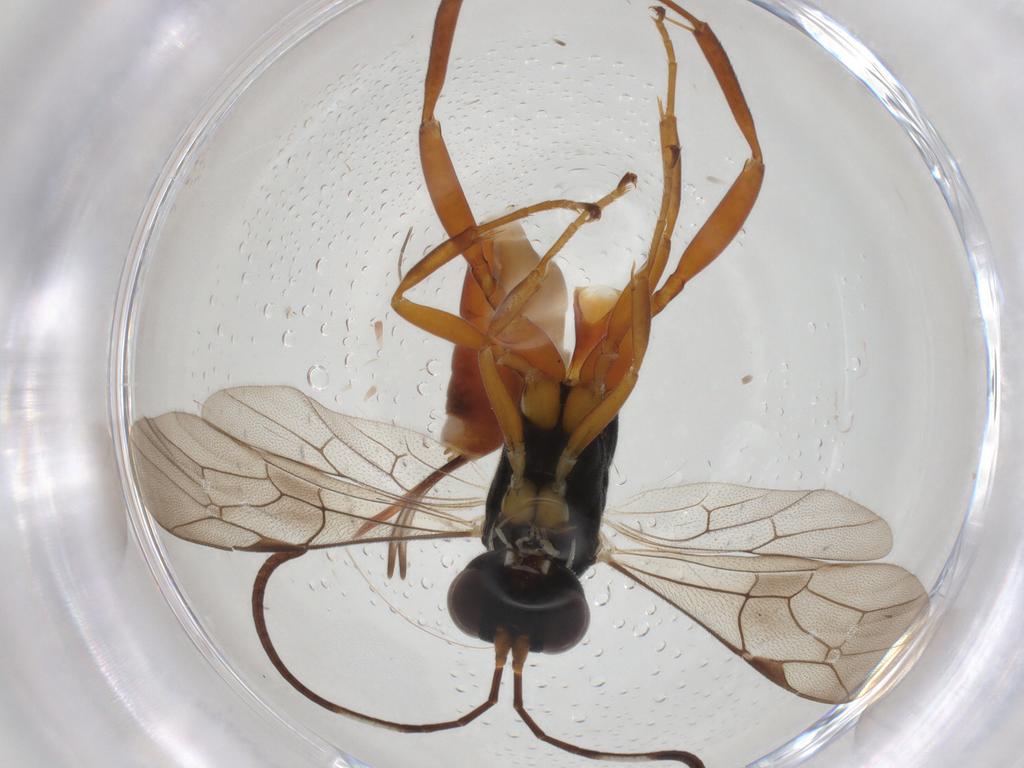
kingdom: Animalia
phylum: Arthropoda
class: Insecta
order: Hymenoptera
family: Ichneumonidae
